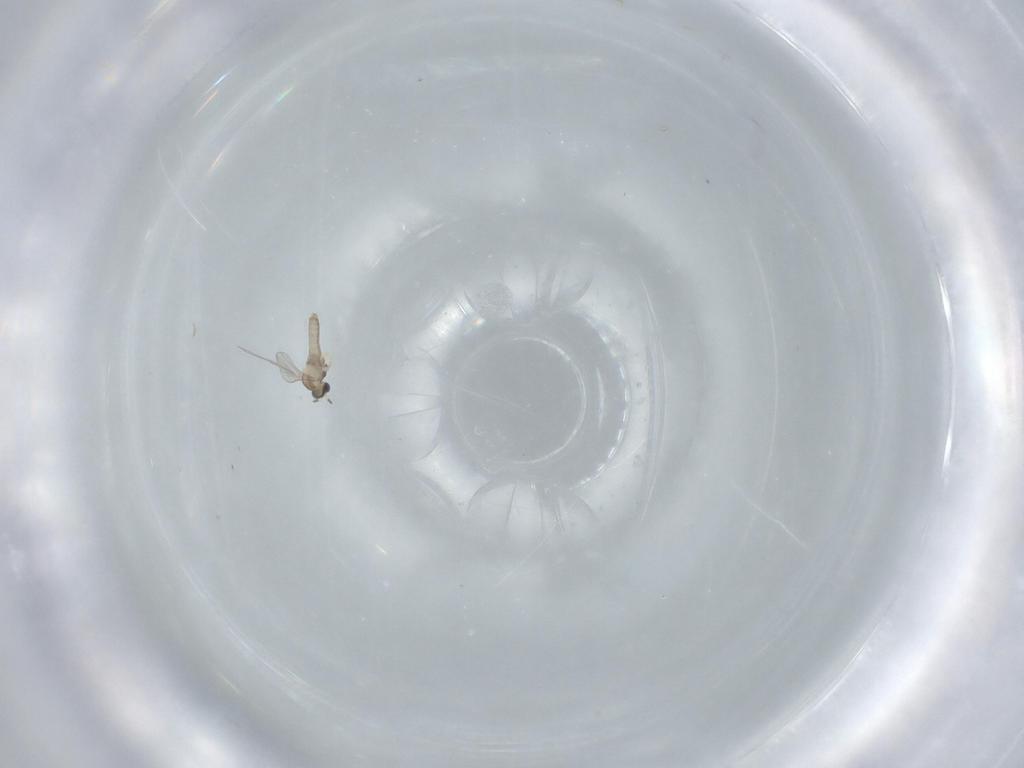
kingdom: Animalia
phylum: Arthropoda
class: Insecta
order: Diptera
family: Cecidomyiidae
